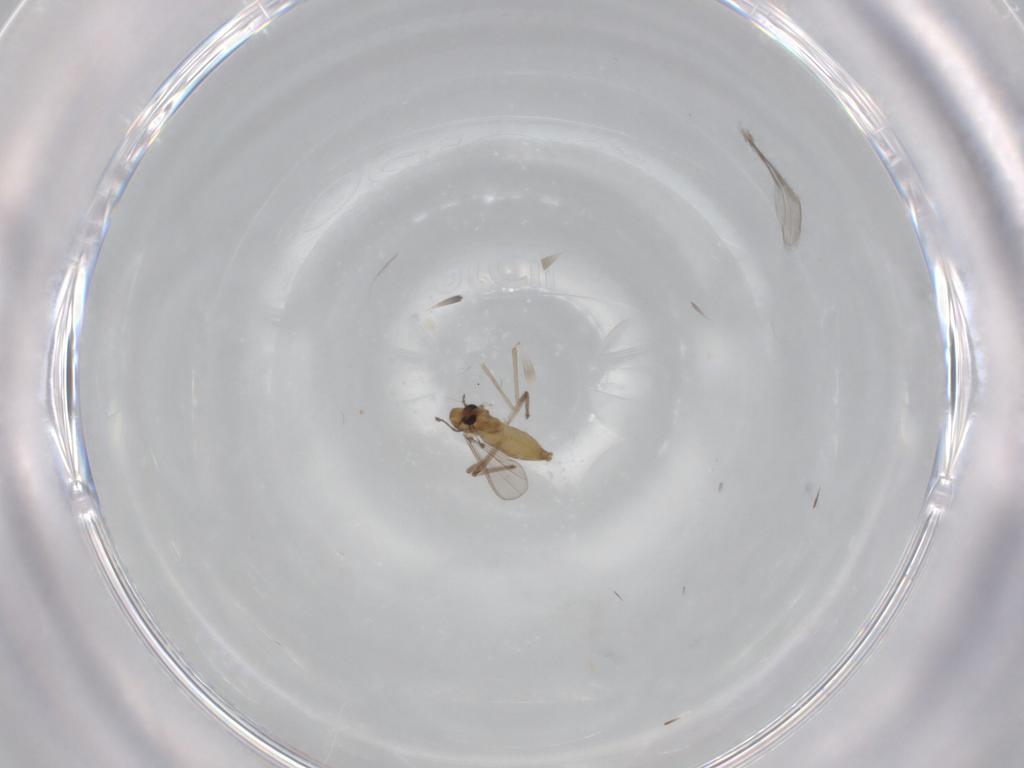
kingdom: Animalia
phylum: Arthropoda
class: Insecta
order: Diptera
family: Chironomidae
